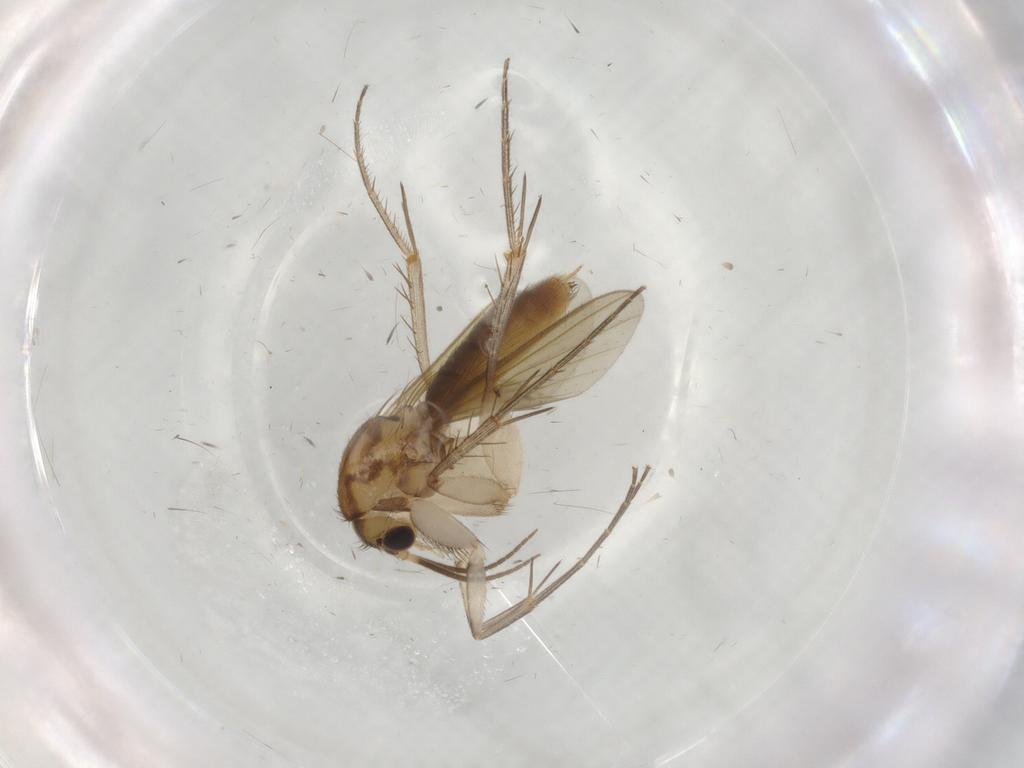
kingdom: Animalia
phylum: Arthropoda
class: Insecta
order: Diptera
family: Mycetophilidae
